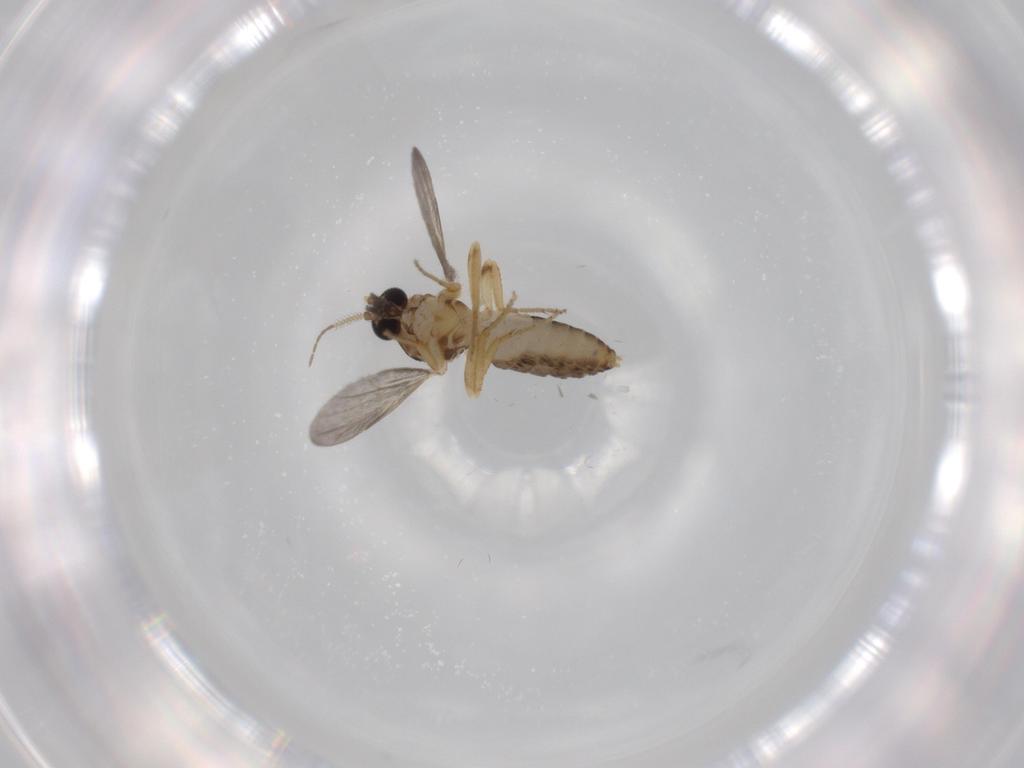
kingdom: Animalia
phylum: Arthropoda
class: Insecta
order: Diptera
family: Ceratopogonidae
